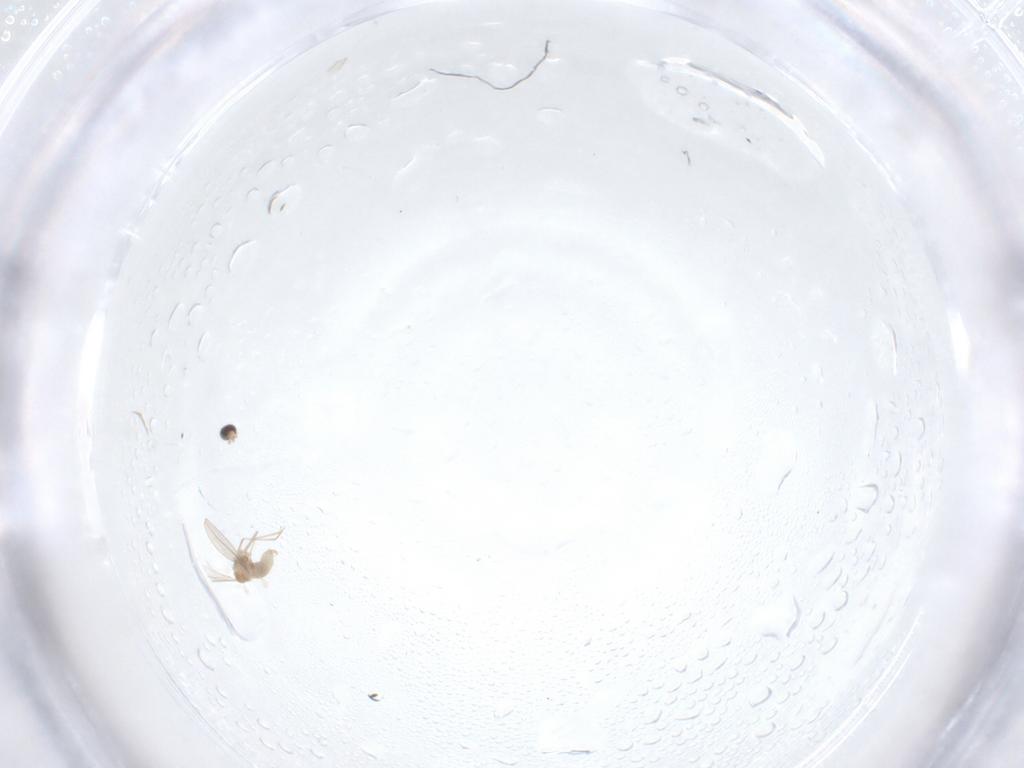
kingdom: Animalia
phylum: Arthropoda
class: Insecta
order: Diptera
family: Cecidomyiidae
